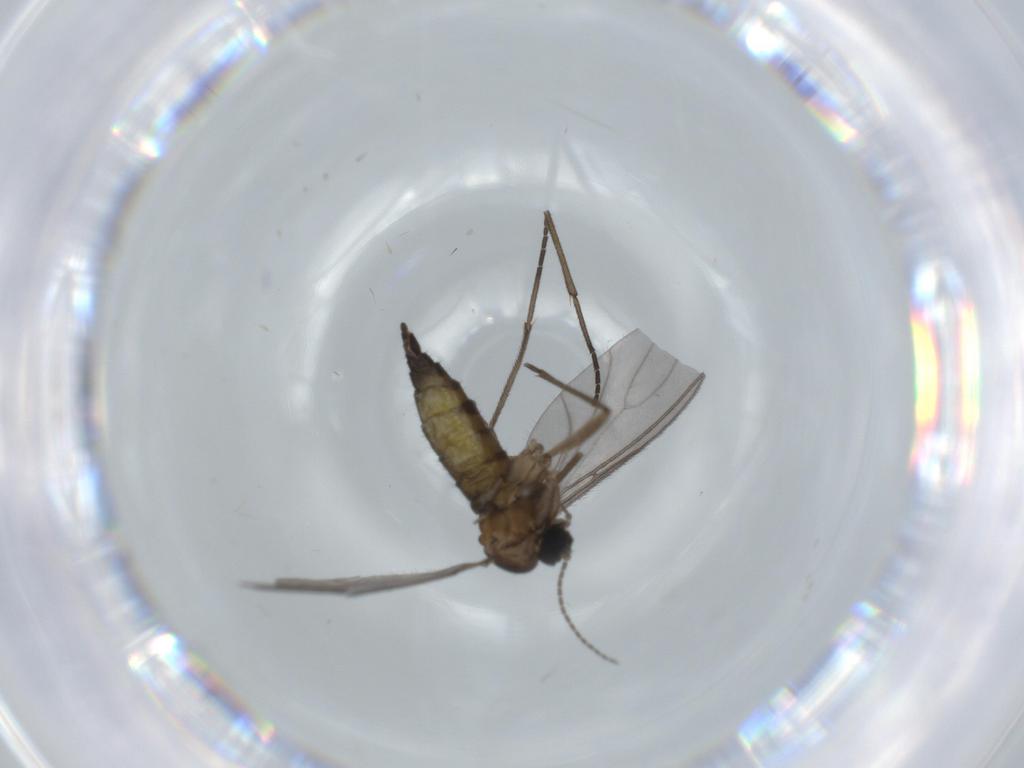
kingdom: Animalia
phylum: Arthropoda
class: Insecta
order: Diptera
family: Sciaridae
